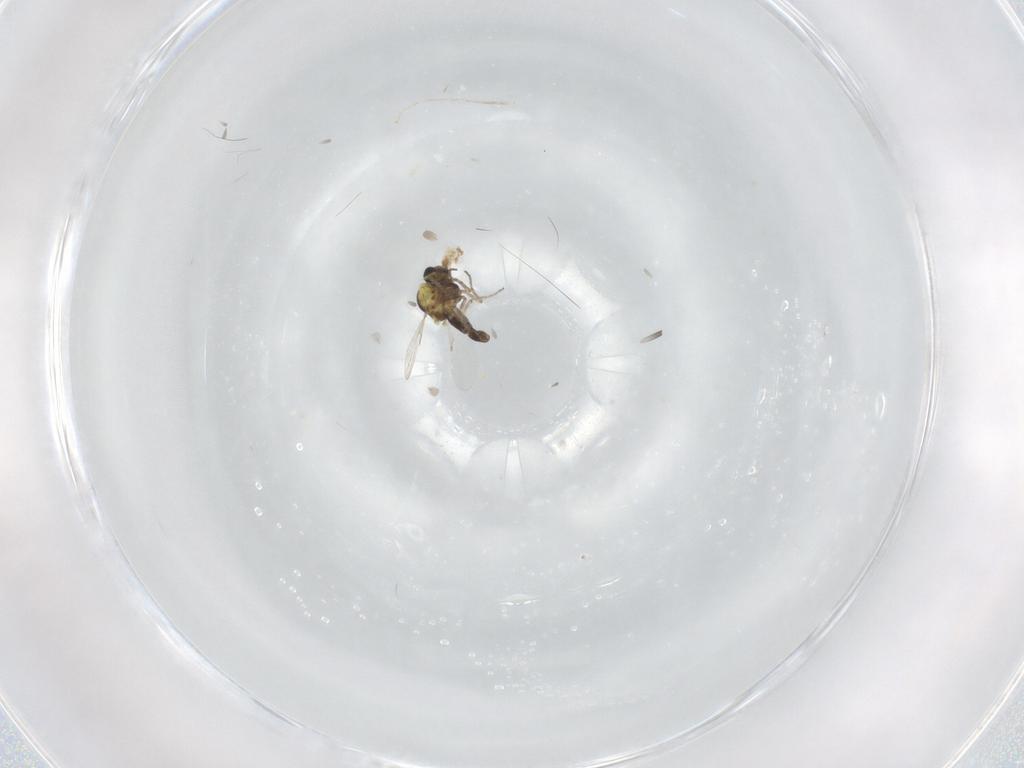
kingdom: Animalia
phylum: Arthropoda
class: Insecta
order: Diptera
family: Ceratopogonidae
